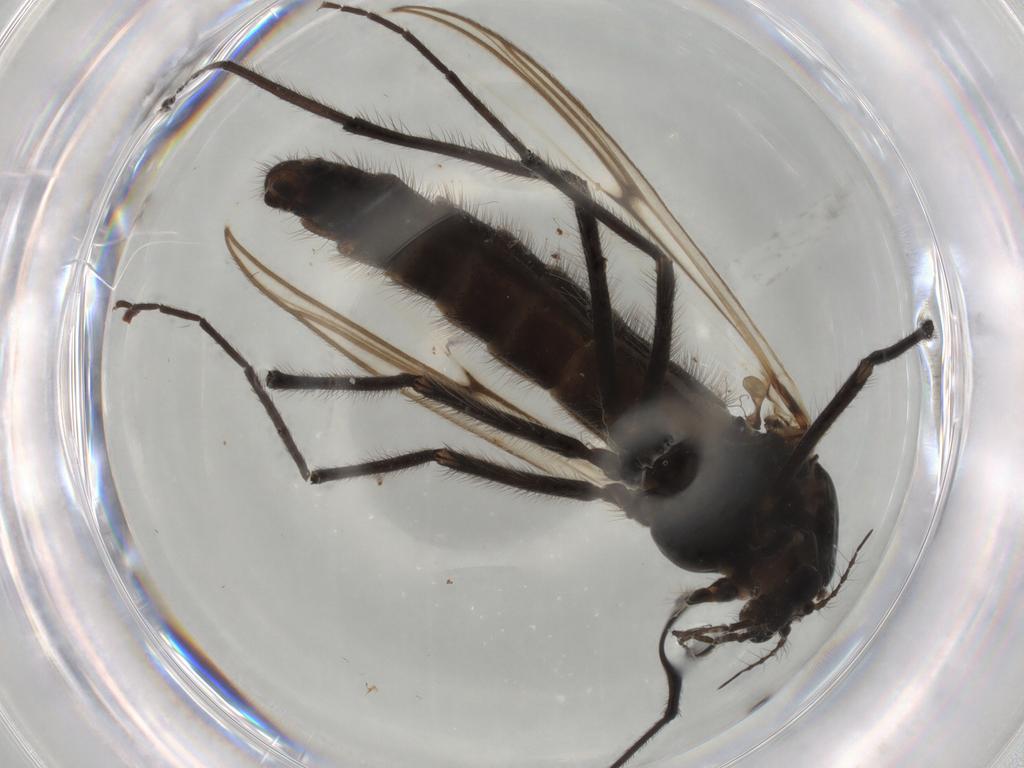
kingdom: Animalia
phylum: Arthropoda
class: Insecta
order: Diptera
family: Chironomidae
